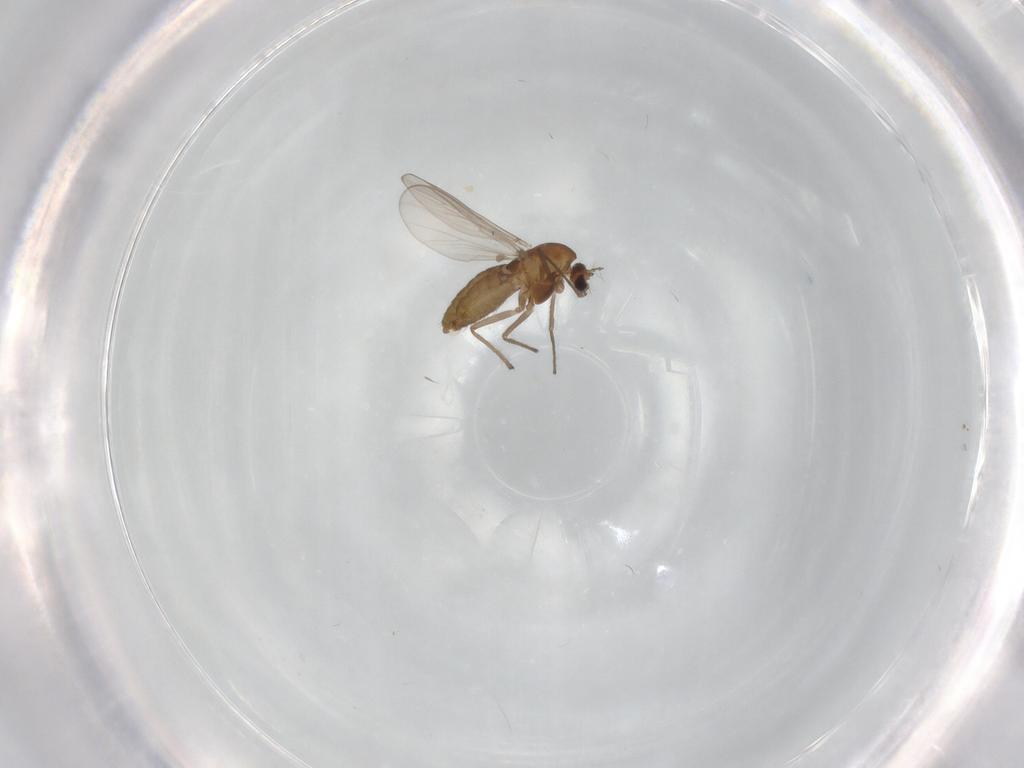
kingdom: Animalia
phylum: Arthropoda
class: Insecta
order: Diptera
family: Chironomidae
